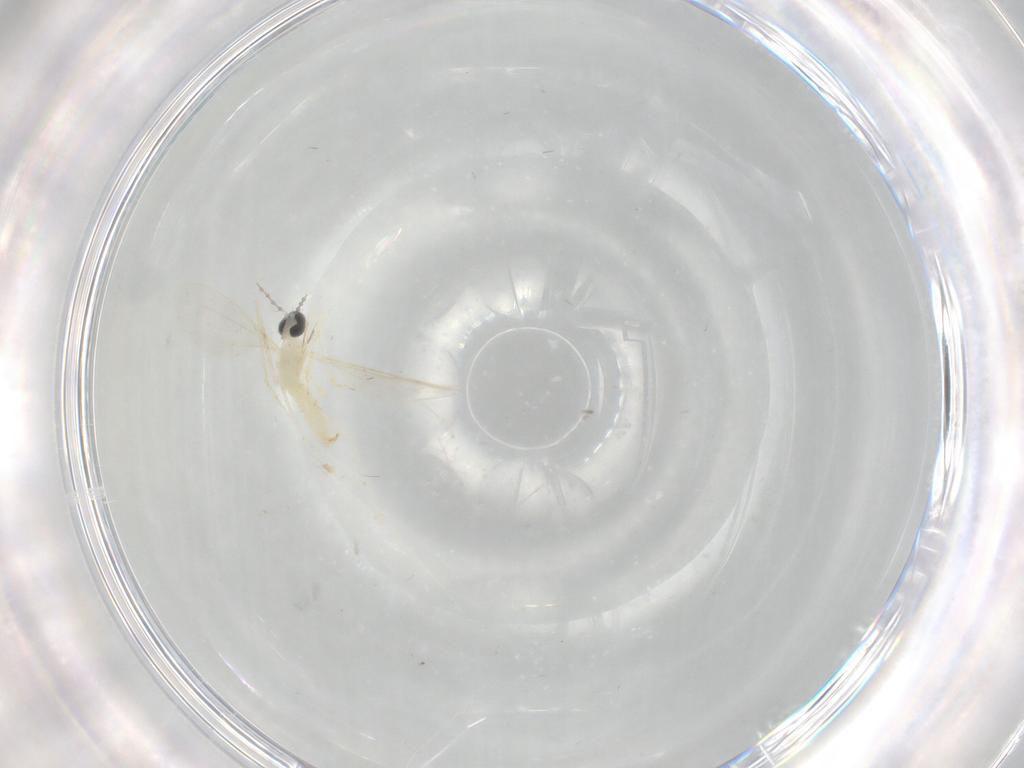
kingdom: Animalia
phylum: Arthropoda
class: Insecta
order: Diptera
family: Cecidomyiidae
